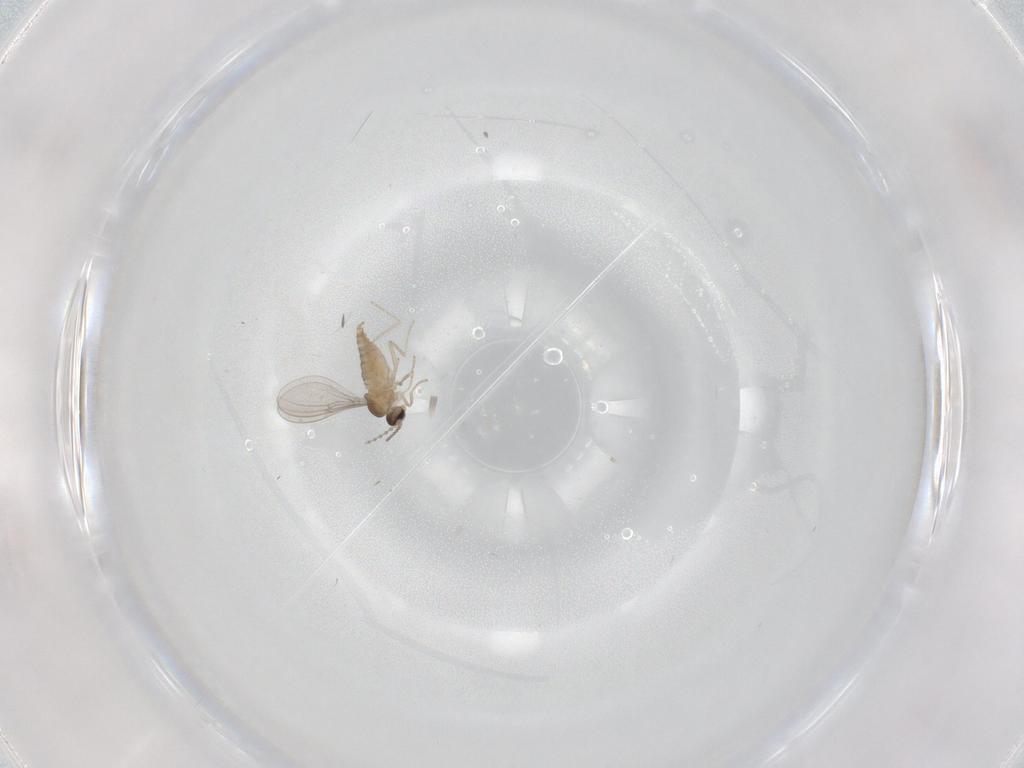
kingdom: Animalia
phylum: Arthropoda
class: Insecta
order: Diptera
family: Cecidomyiidae
